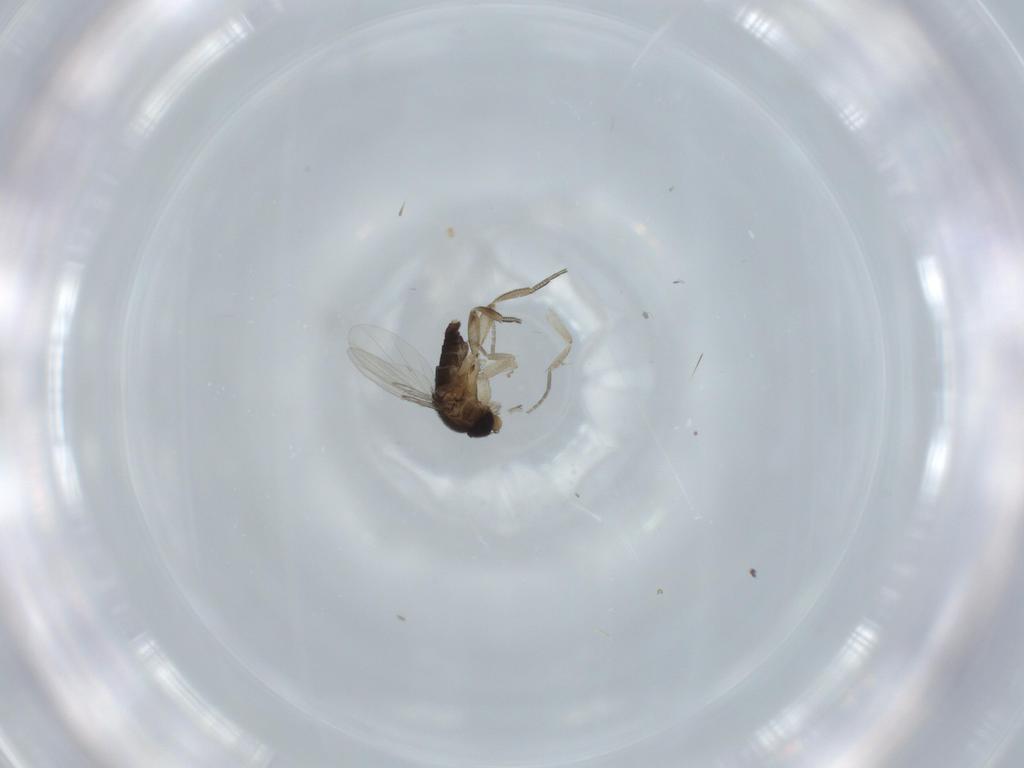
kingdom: Animalia
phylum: Arthropoda
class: Insecta
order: Diptera
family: Phoridae
